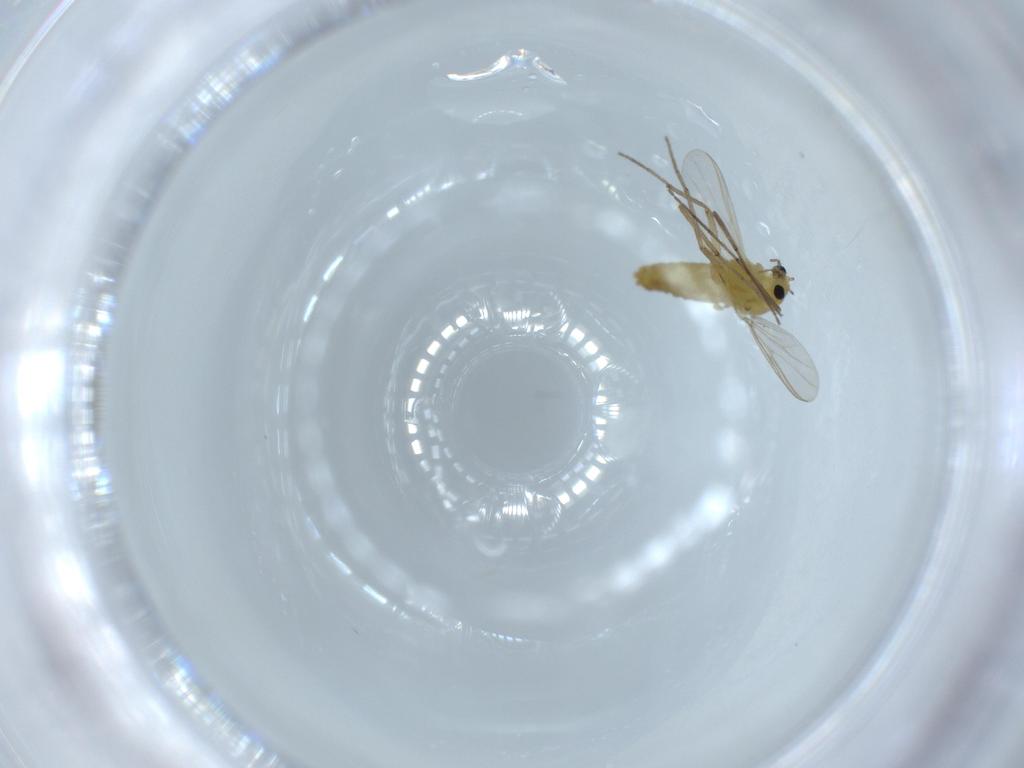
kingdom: Animalia
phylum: Arthropoda
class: Insecta
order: Diptera
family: Chironomidae
